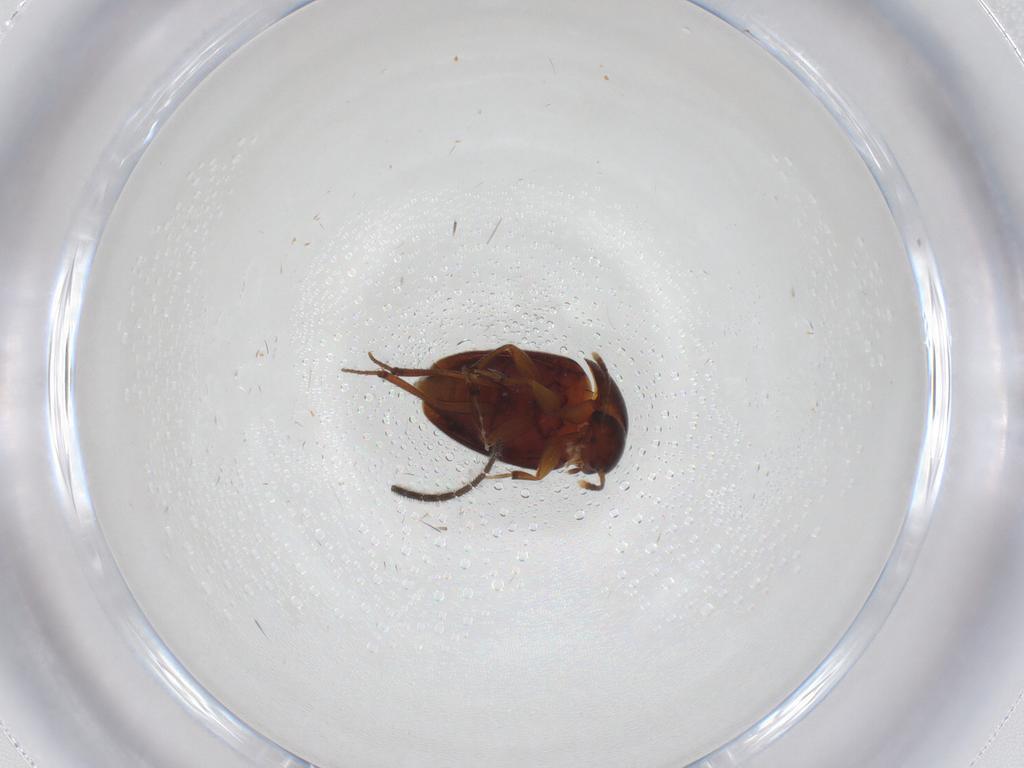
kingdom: Animalia
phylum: Arthropoda
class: Insecta
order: Coleoptera
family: Leiodidae
